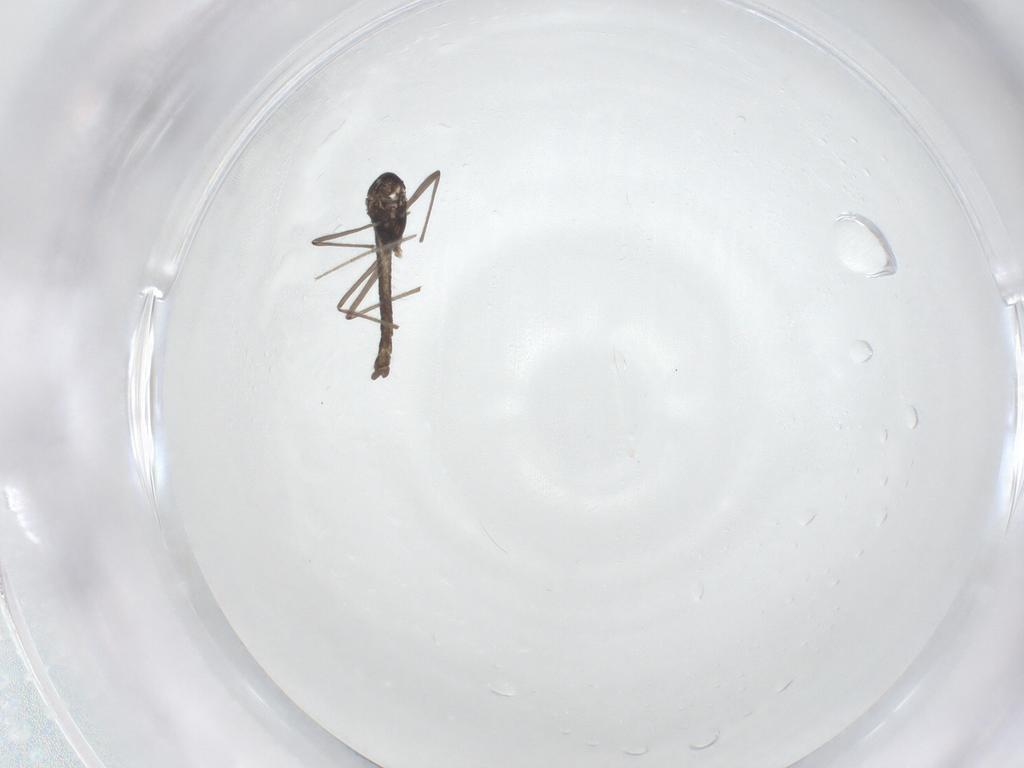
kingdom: Animalia
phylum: Arthropoda
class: Insecta
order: Diptera
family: Chironomidae
